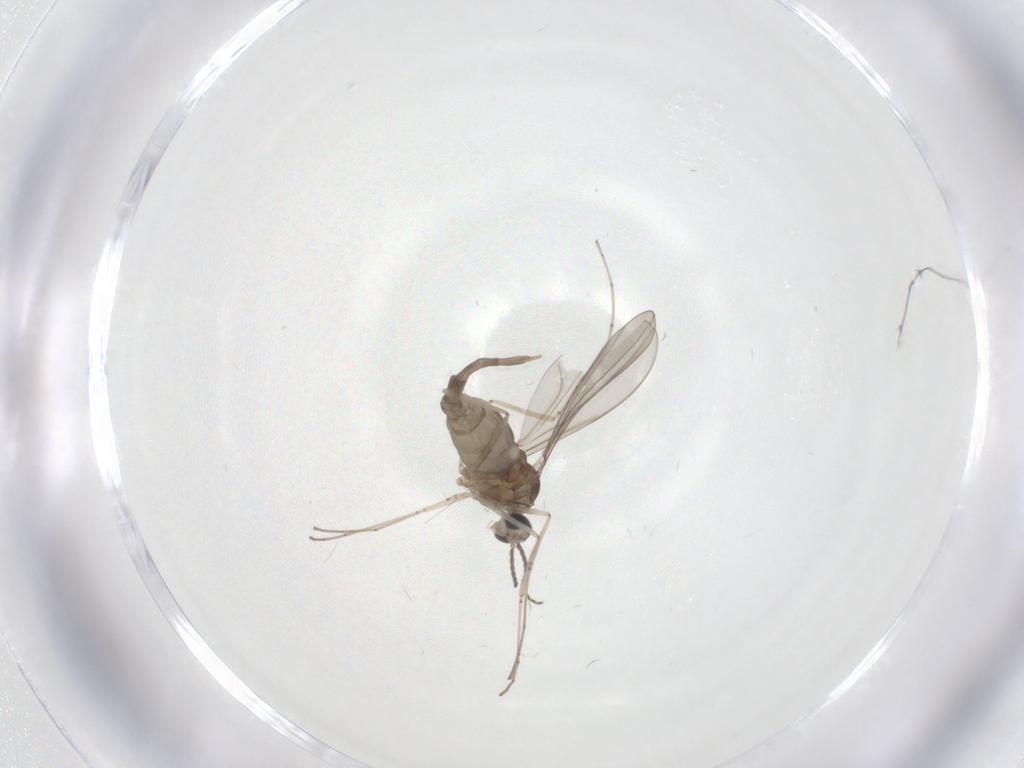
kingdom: Animalia
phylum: Arthropoda
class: Insecta
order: Diptera
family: Cecidomyiidae
